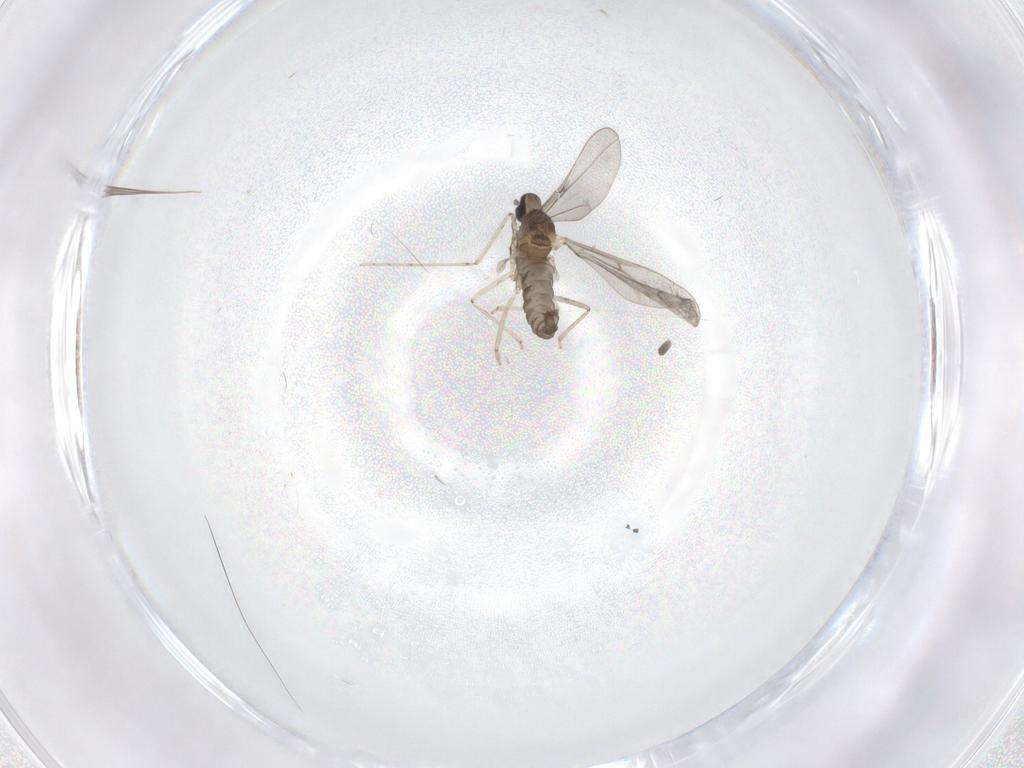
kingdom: Animalia
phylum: Arthropoda
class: Insecta
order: Diptera
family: Cecidomyiidae
